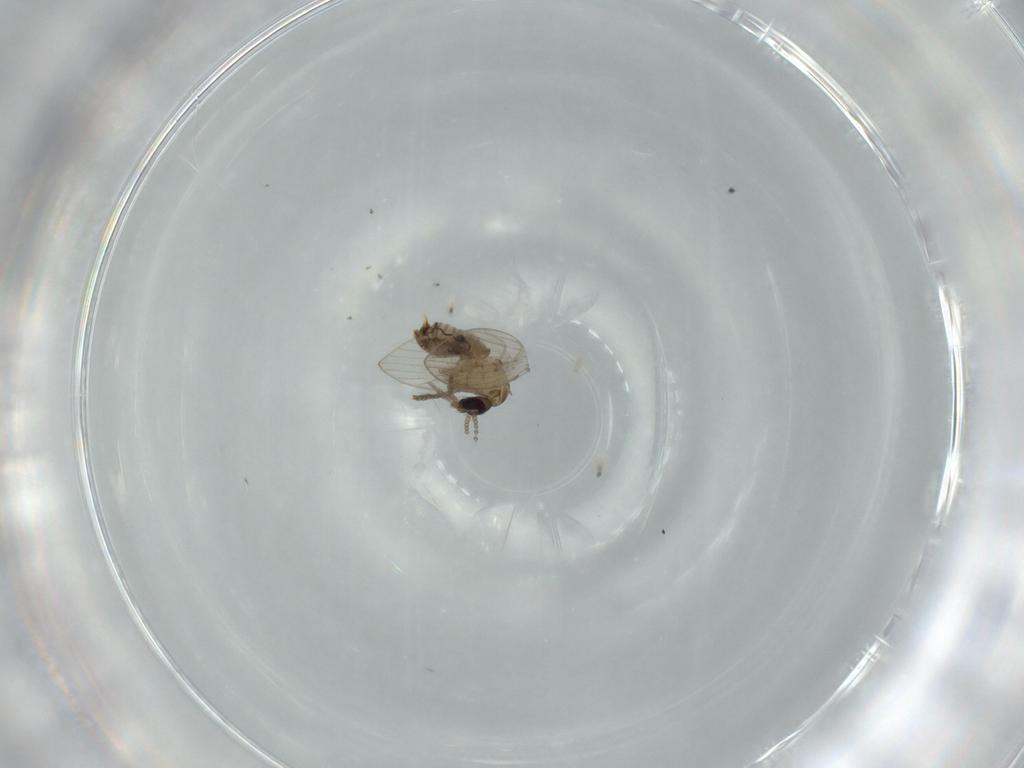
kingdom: Animalia
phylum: Arthropoda
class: Insecta
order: Diptera
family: Psychodidae
